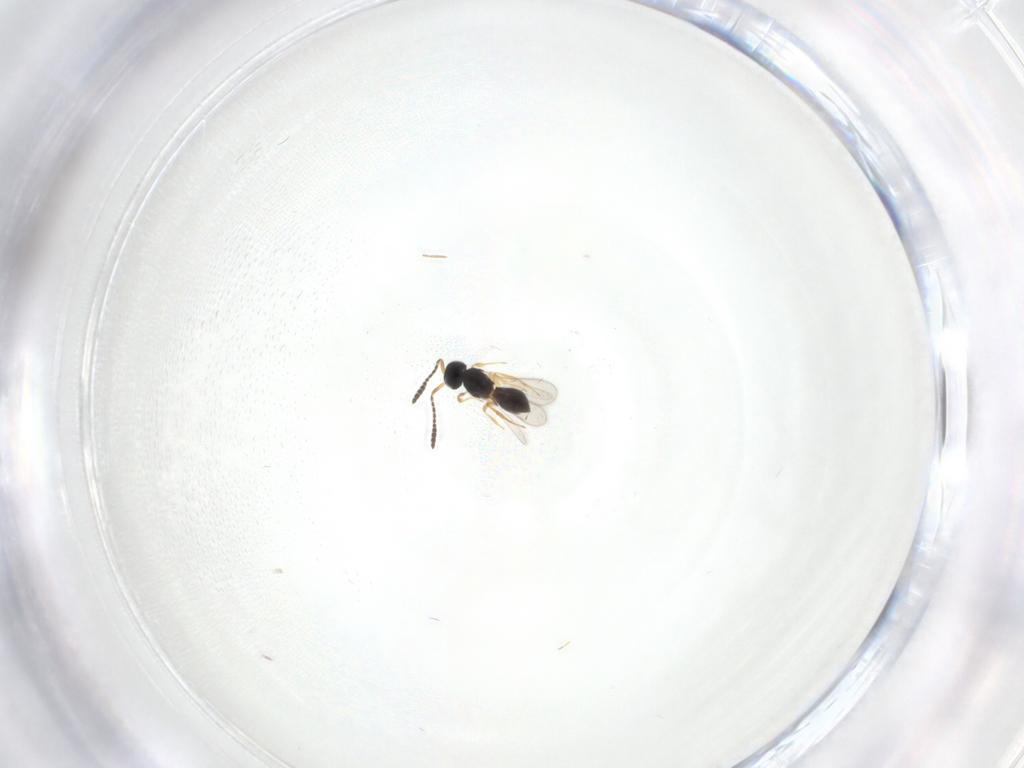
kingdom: Animalia
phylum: Arthropoda
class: Insecta
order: Hymenoptera
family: Scelionidae
